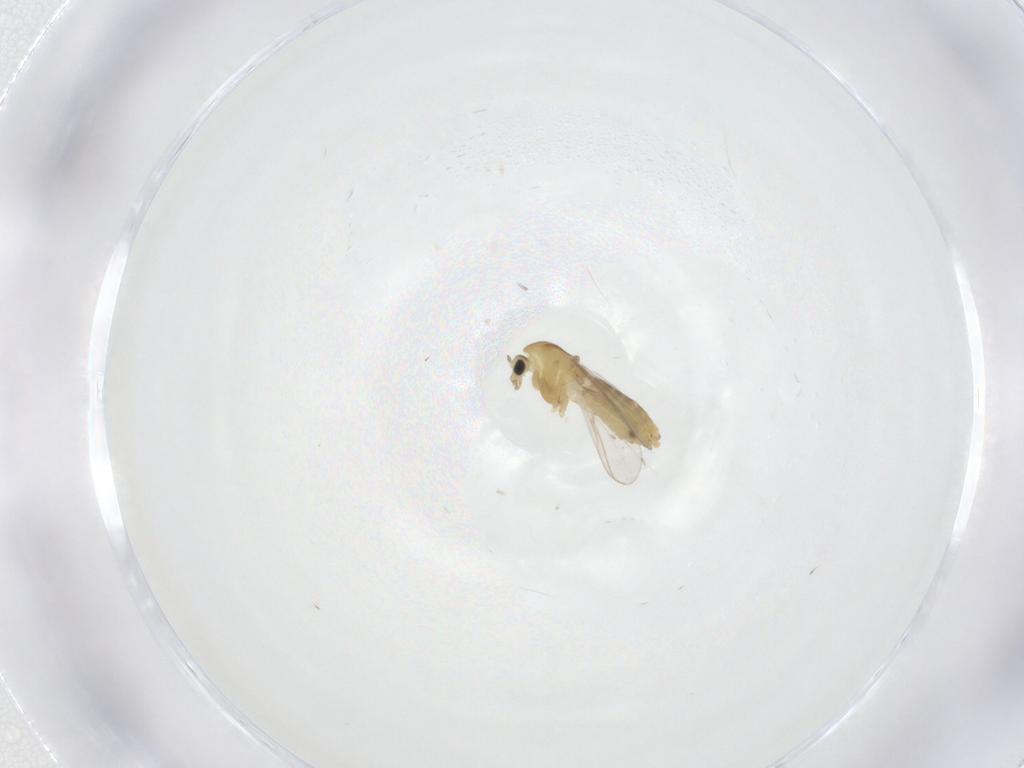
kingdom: Animalia
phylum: Arthropoda
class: Insecta
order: Diptera
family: Chironomidae
